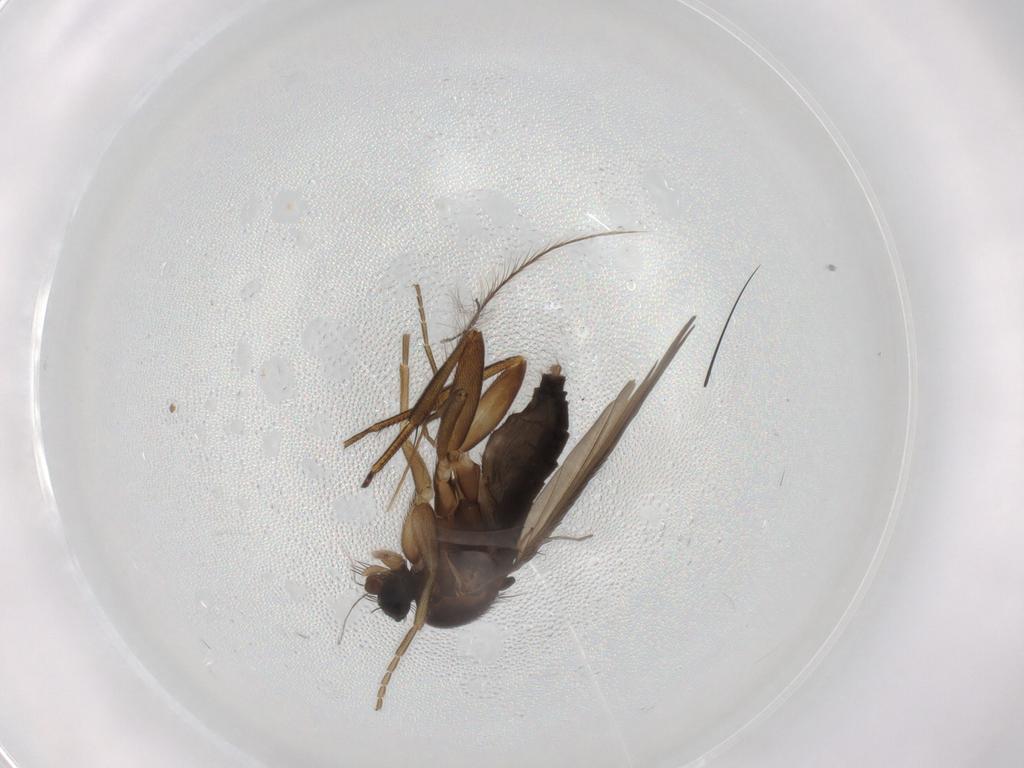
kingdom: Animalia
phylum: Arthropoda
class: Insecta
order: Diptera
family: Phoridae
